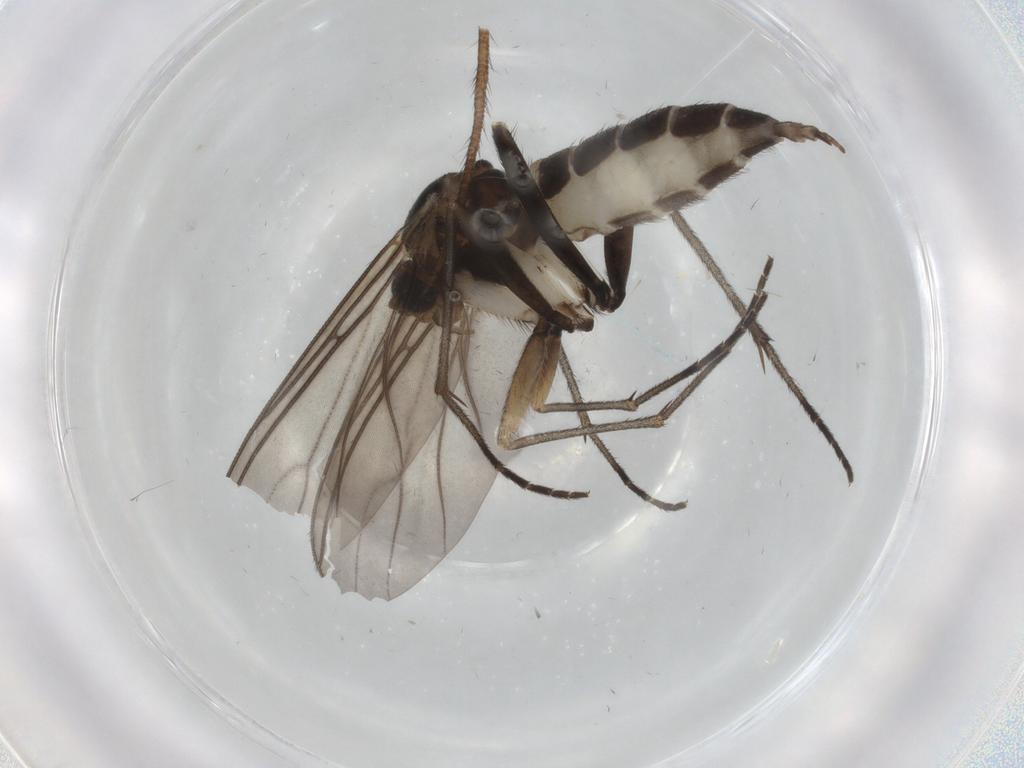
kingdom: Animalia
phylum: Arthropoda
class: Insecta
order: Diptera
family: Sciaridae
